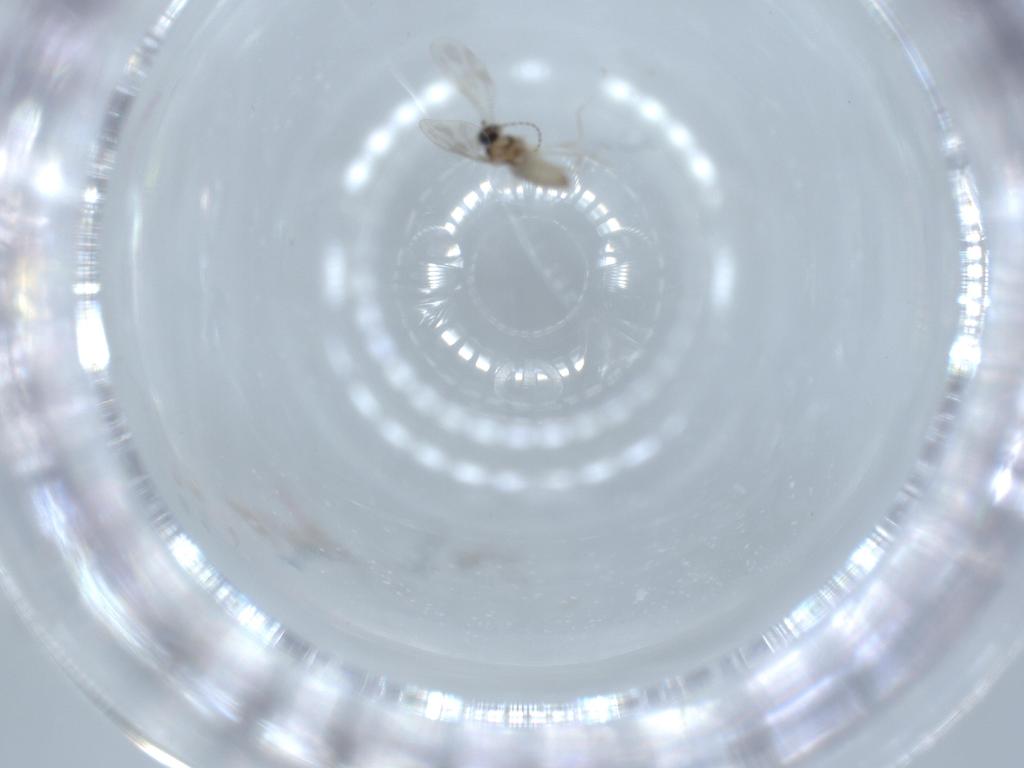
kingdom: Animalia
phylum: Arthropoda
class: Insecta
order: Diptera
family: Cecidomyiidae
